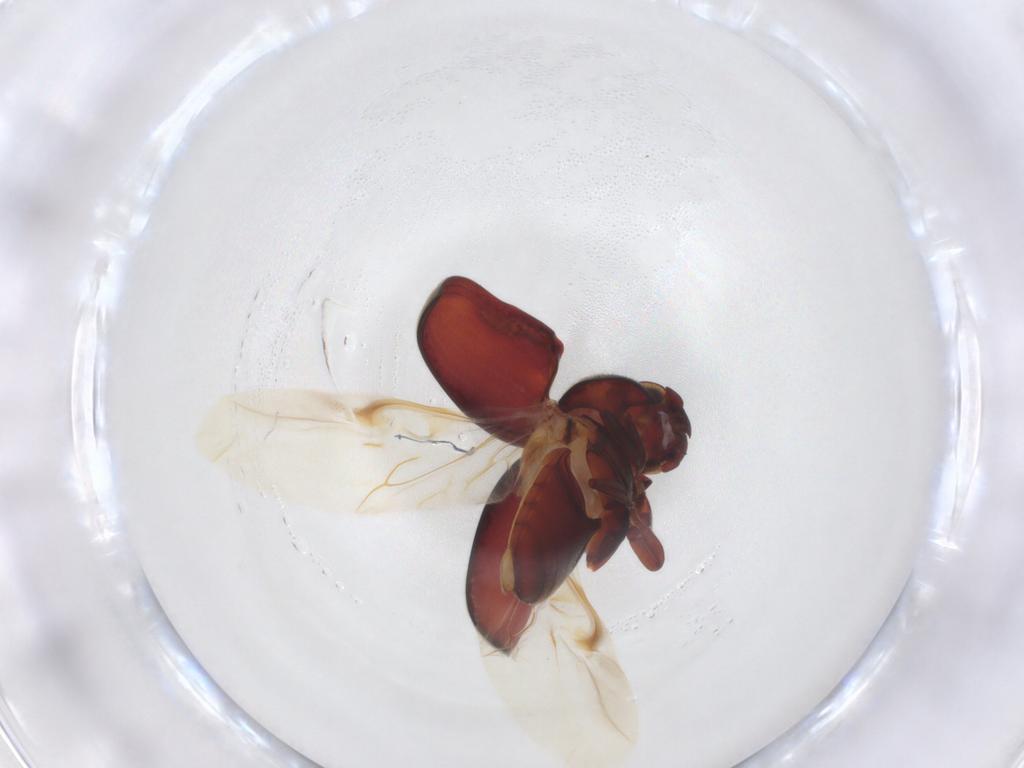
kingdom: Animalia
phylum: Arthropoda
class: Insecta
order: Coleoptera
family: Ptinidae
